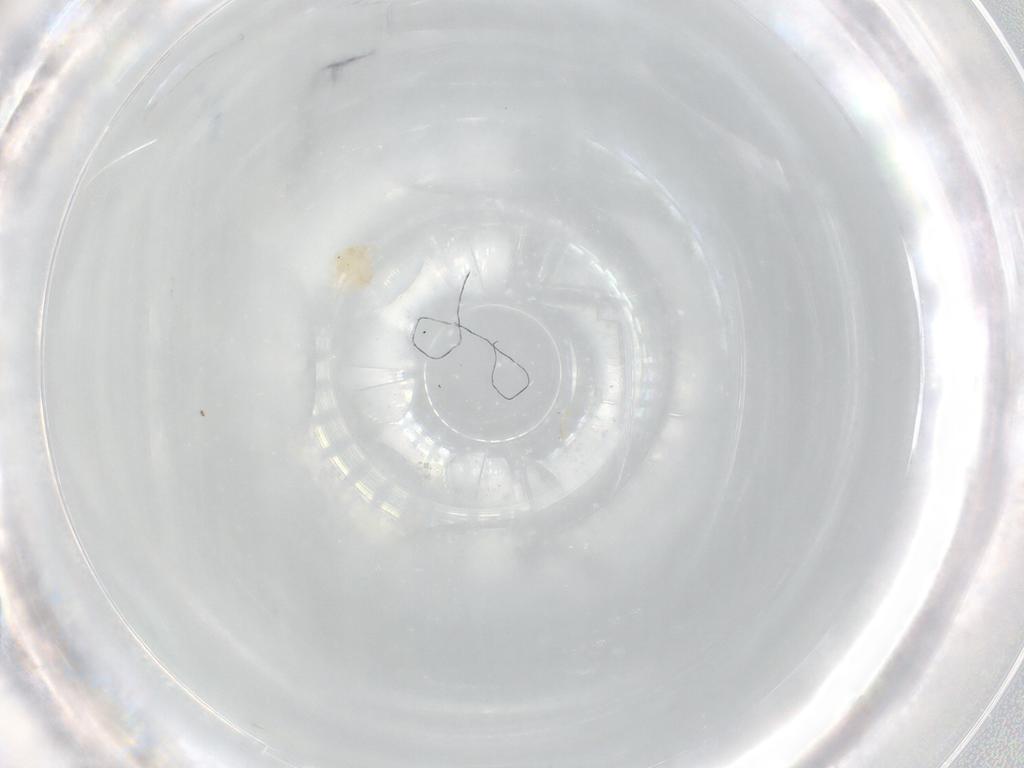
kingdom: Animalia
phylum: Arthropoda
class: Arachnida
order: Trombidiformes
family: Sperchontidae
